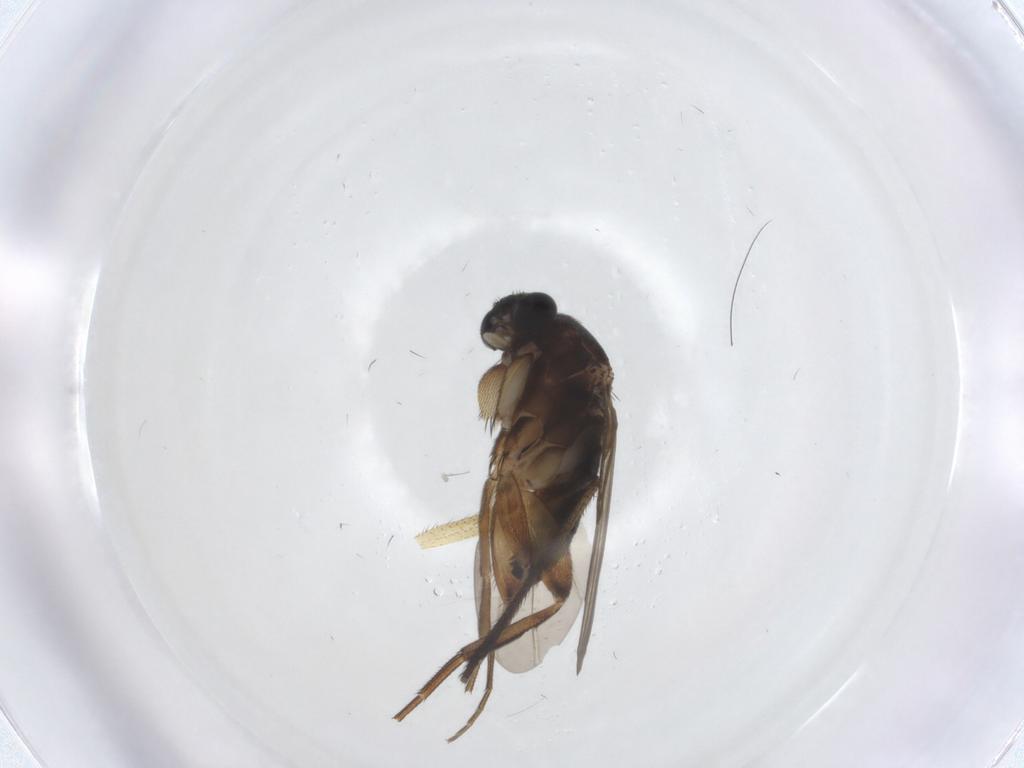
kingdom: Animalia
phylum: Arthropoda
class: Insecta
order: Diptera
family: Phoridae
